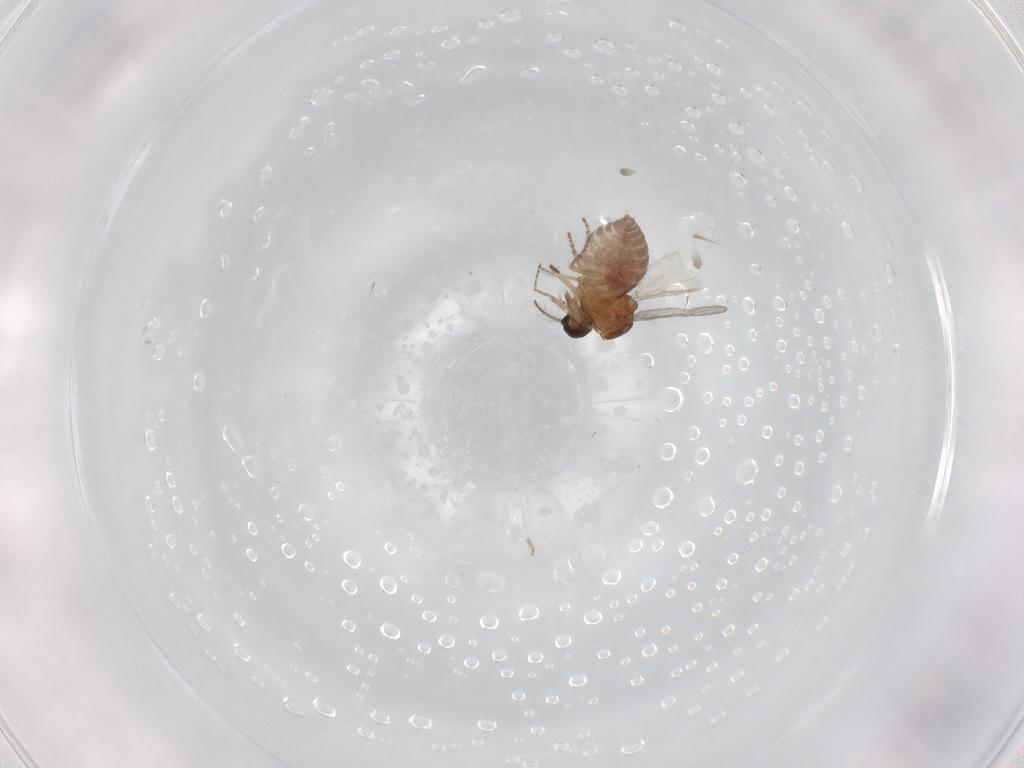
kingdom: Animalia
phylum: Arthropoda
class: Insecta
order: Diptera
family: Dolichopodidae
